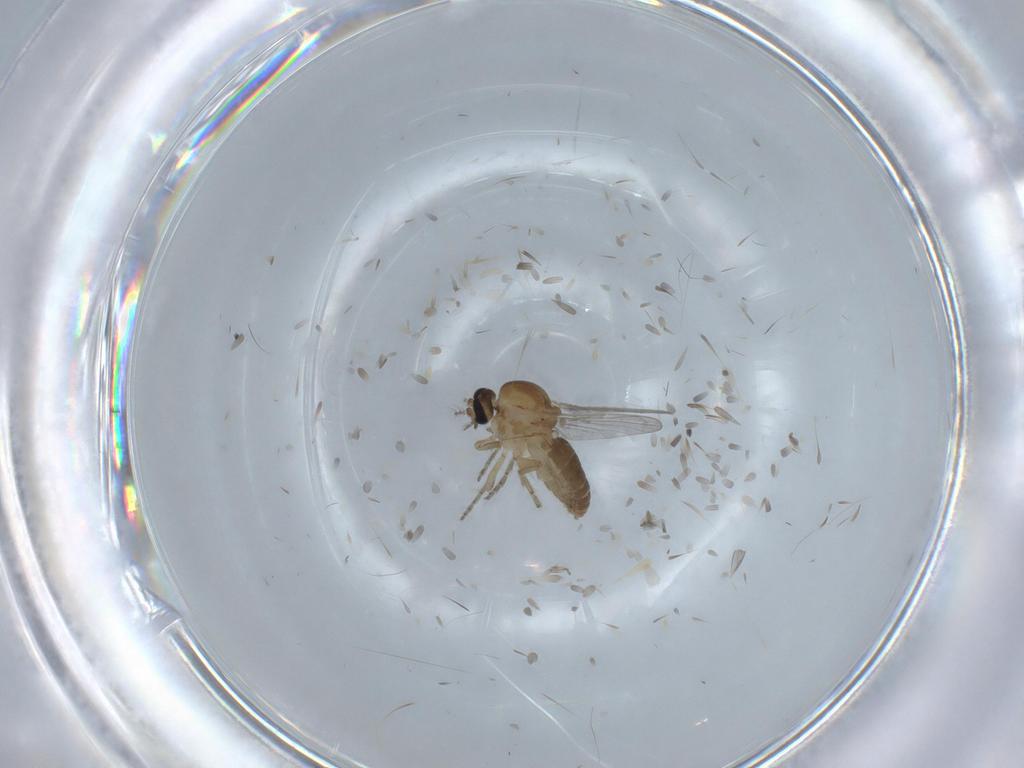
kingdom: Animalia
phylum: Arthropoda
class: Insecta
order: Diptera
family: Ceratopogonidae
